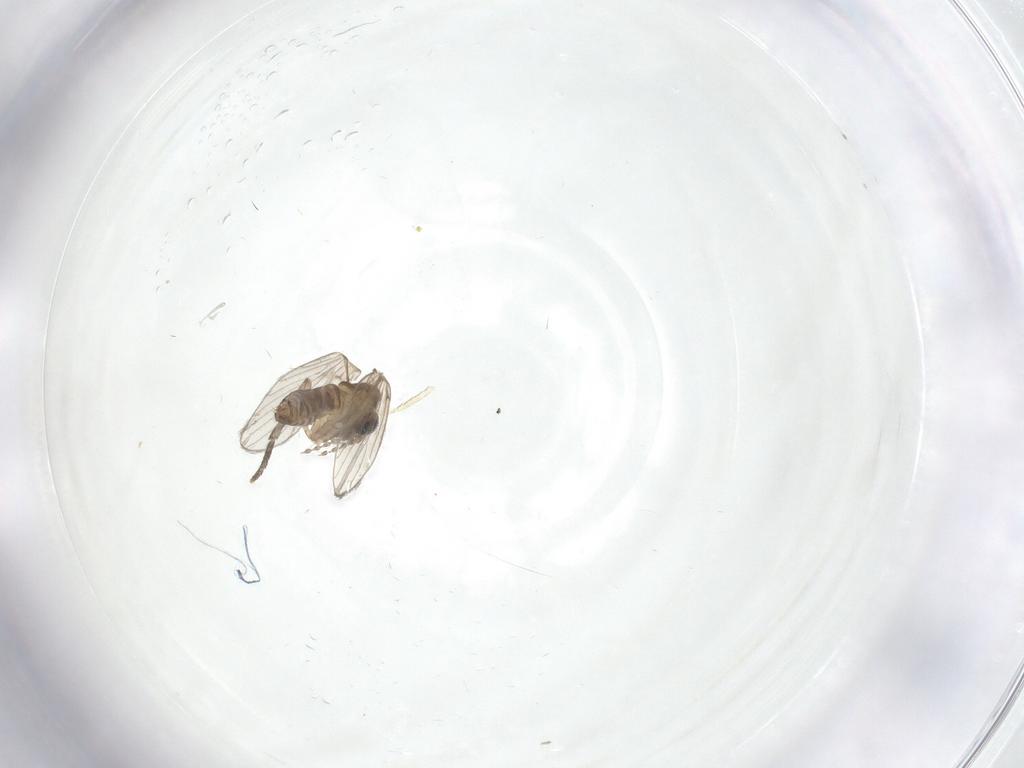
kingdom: Animalia
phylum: Arthropoda
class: Insecta
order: Diptera
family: Psychodidae
